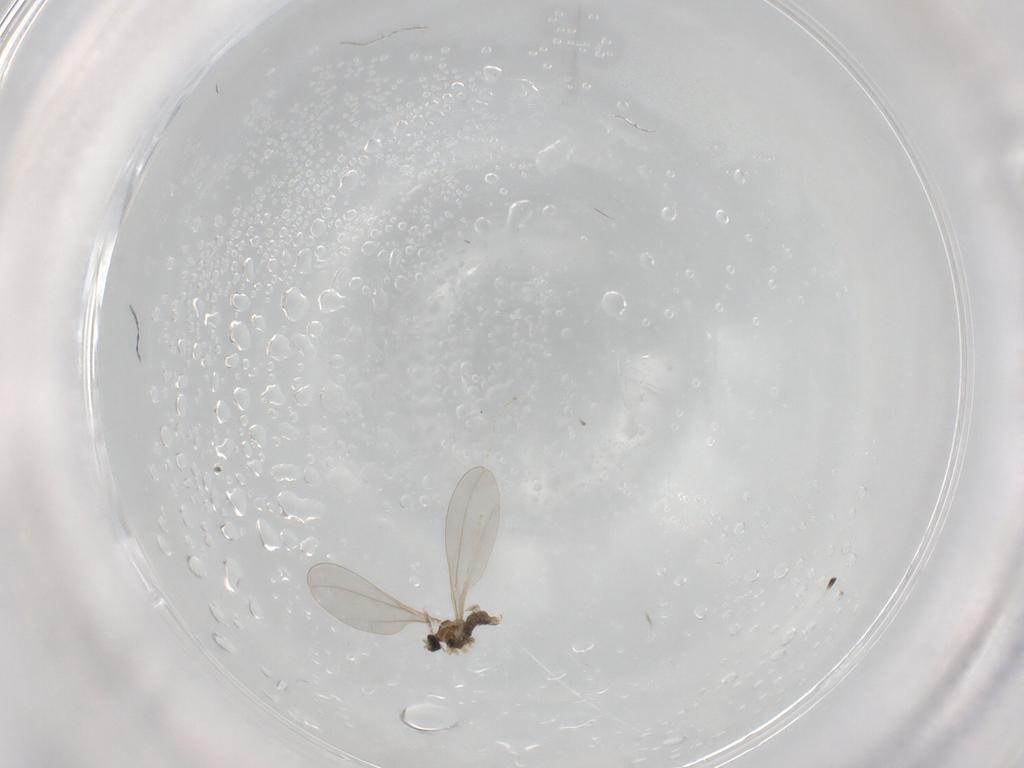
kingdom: Animalia
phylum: Arthropoda
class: Insecta
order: Diptera
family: Cecidomyiidae
